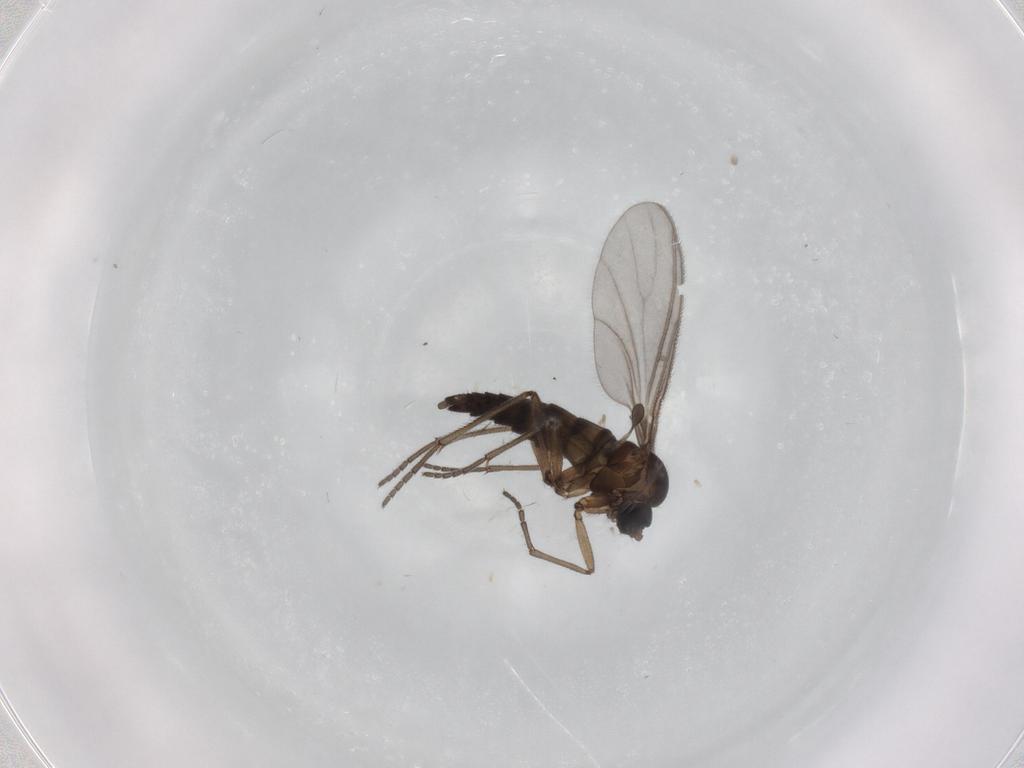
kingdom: Animalia
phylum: Arthropoda
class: Insecta
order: Diptera
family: Sciaridae
